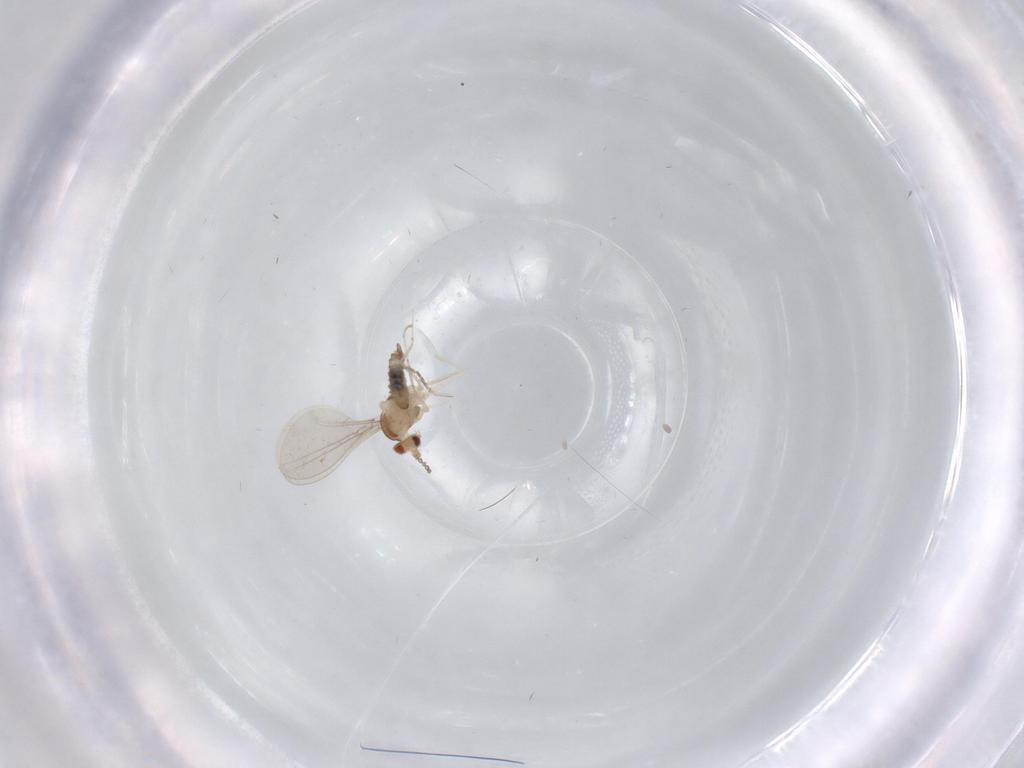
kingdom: Animalia
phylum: Arthropoda
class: Insecta
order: Diptera
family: Cecidomyiidae
